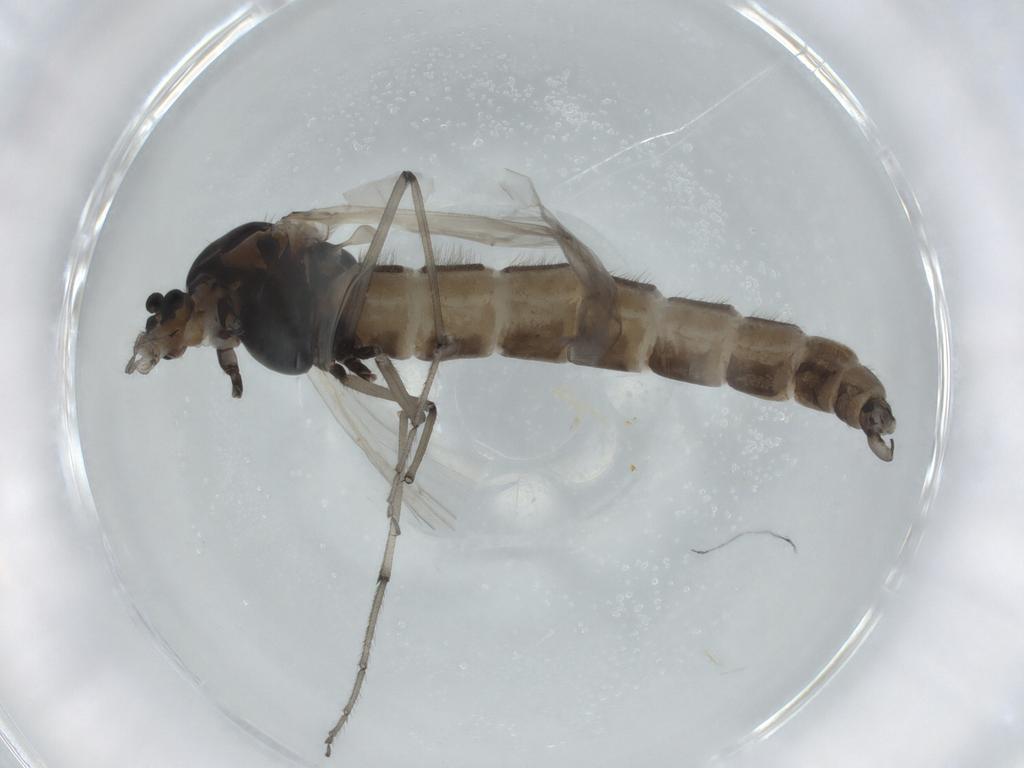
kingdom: Animalia
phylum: Arthropoda
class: Insecta
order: Diptera
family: Chironomidae
